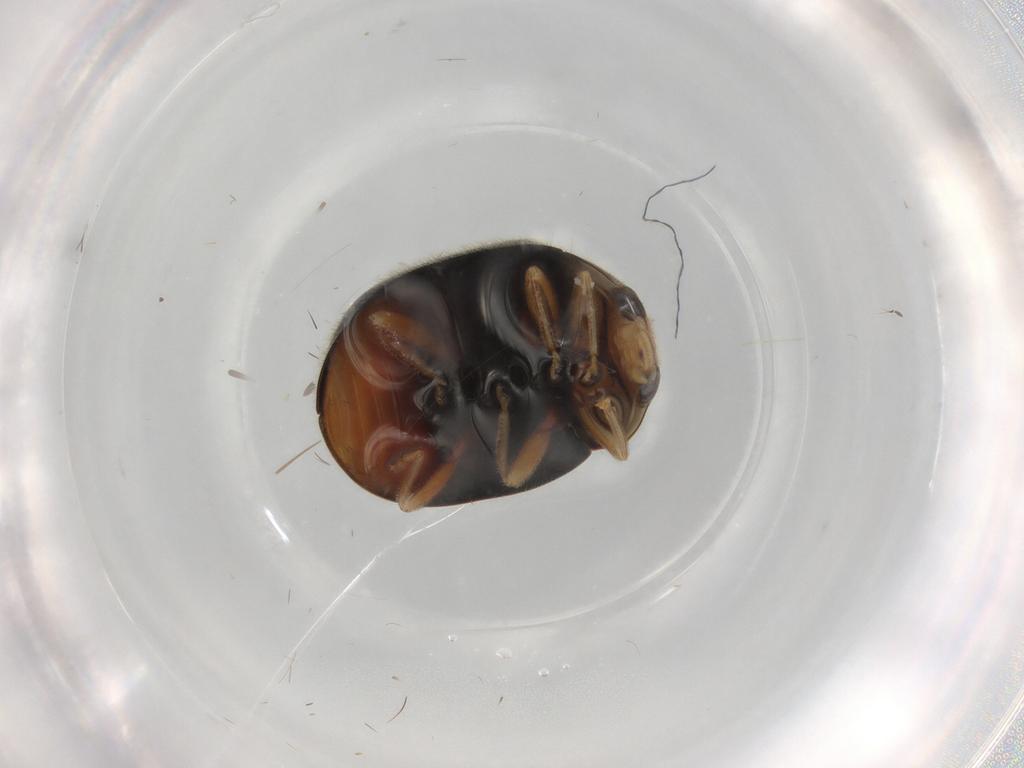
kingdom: Animalia
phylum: Arthropoda
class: Insecta
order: Coleoptera
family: Coccinellidae
